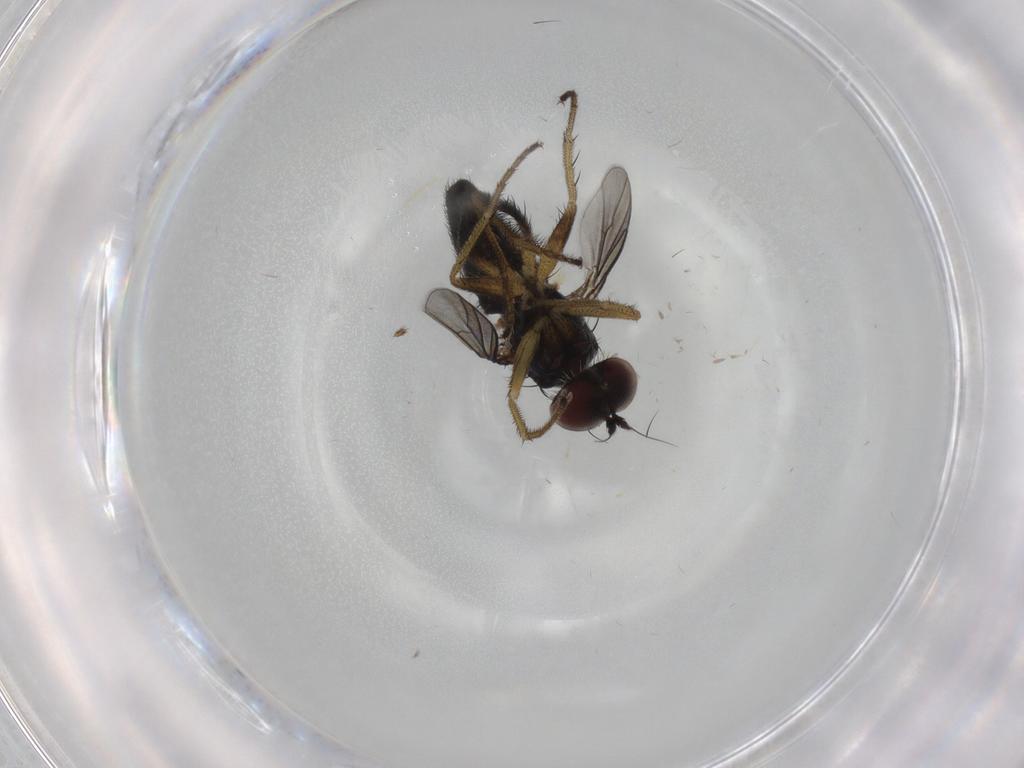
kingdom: Animalia
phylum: Arthropoda
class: Insecta
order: Diptera
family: Dolichopodidae
